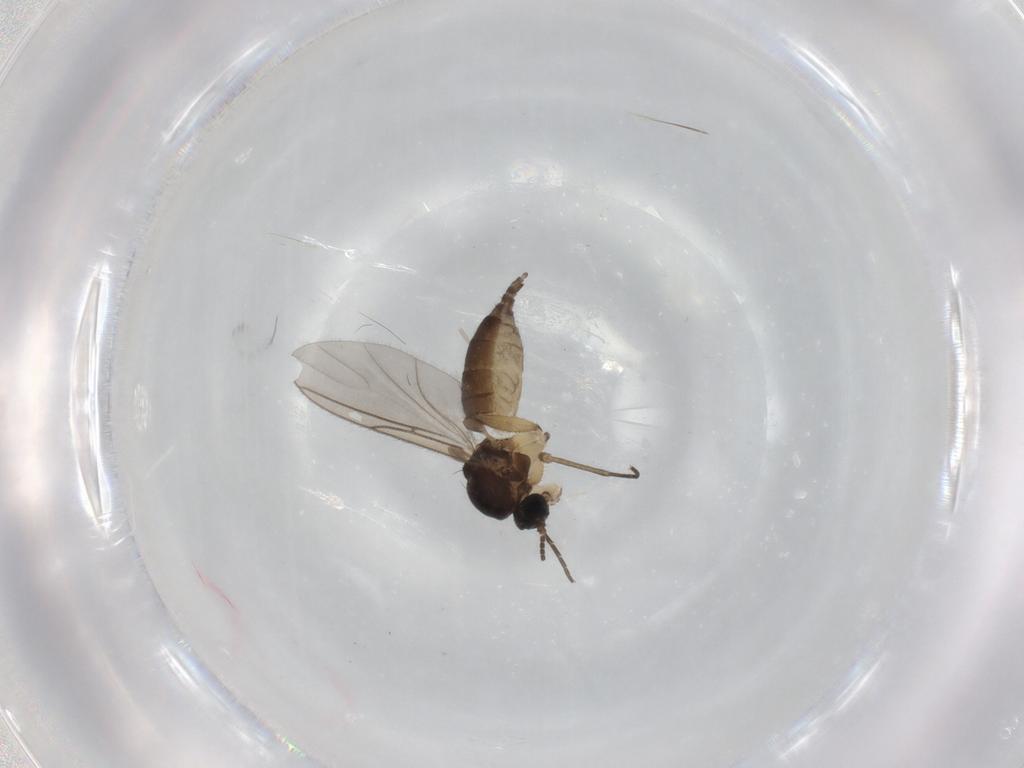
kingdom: Animalia
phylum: Arthropoda
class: Insecta
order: Diptera
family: Sciaridae
